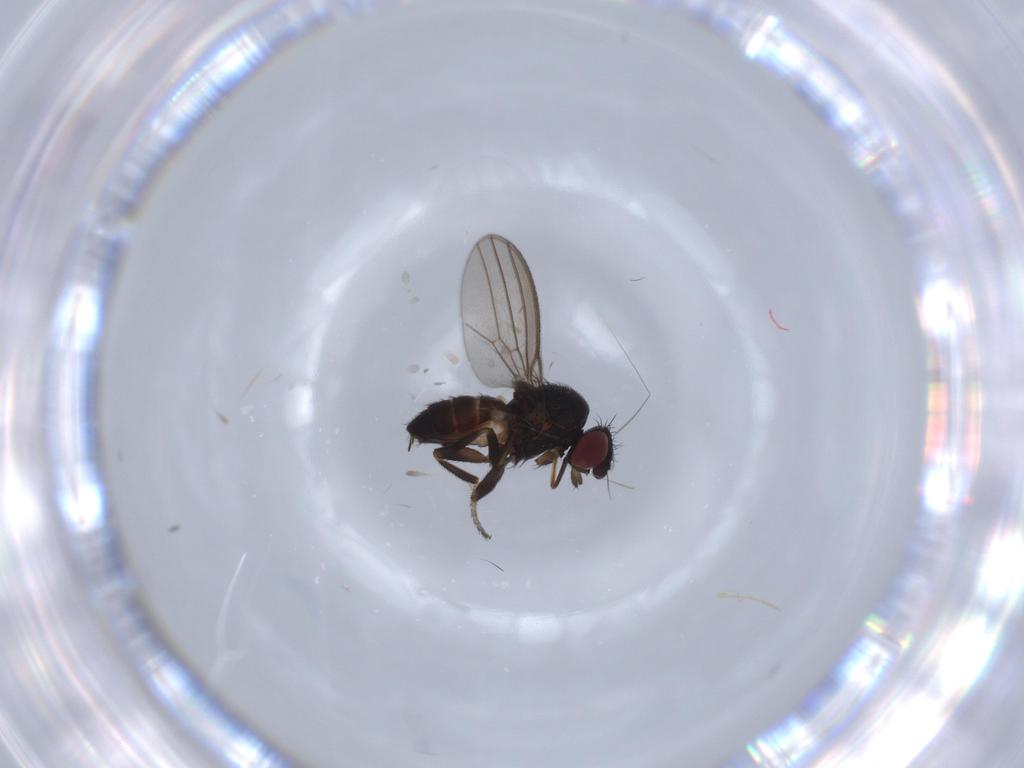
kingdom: Animalia
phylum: Arthropoda
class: Insecta
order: Diptera
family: Milichiidae
